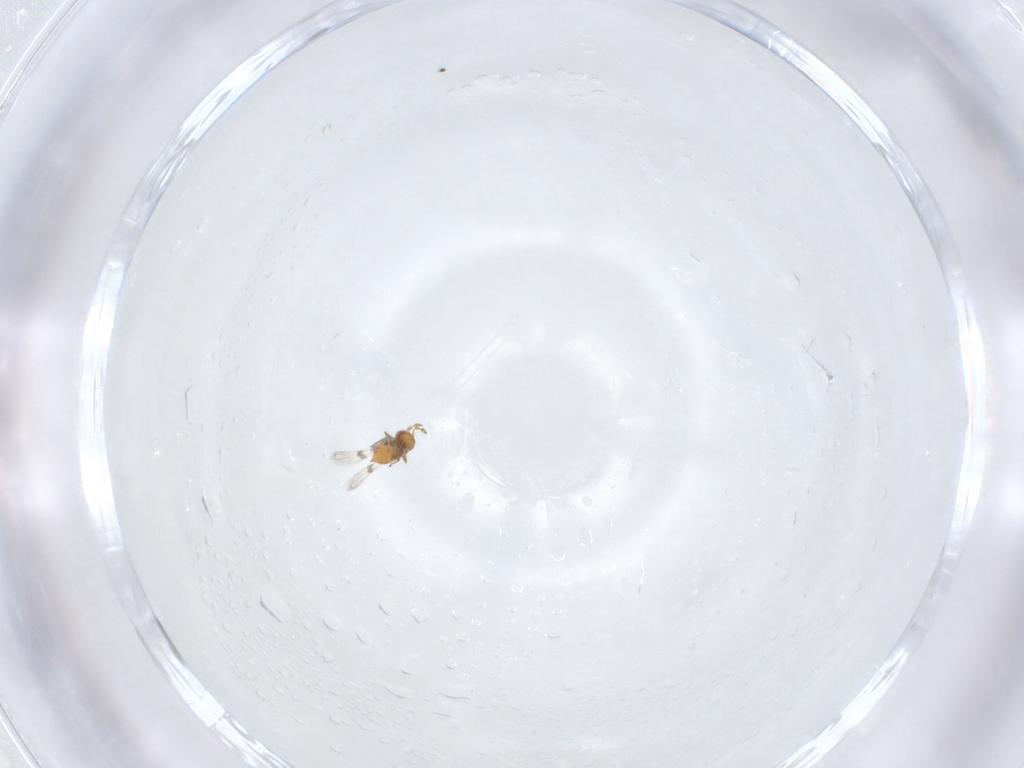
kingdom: Animalia
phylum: Arthropoda
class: Insecta
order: Hymenoptera
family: Trichogrammatidae
